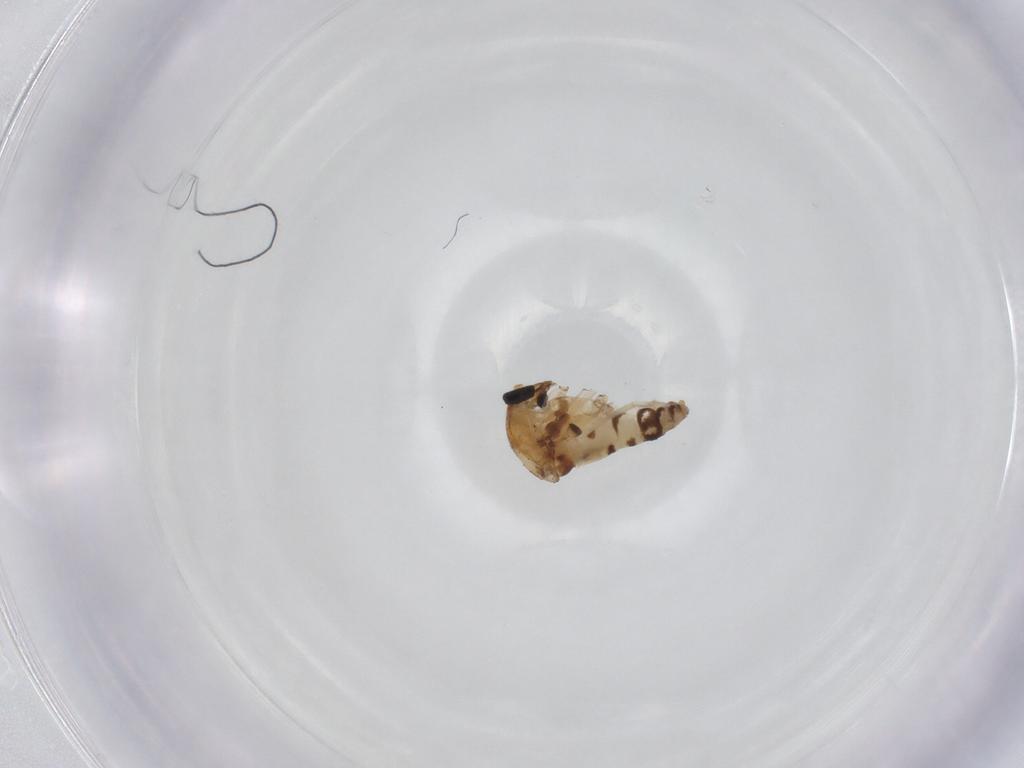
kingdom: Animalia
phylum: Arthropoda
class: Insecta
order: Diptera
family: Ceratopogonidae
